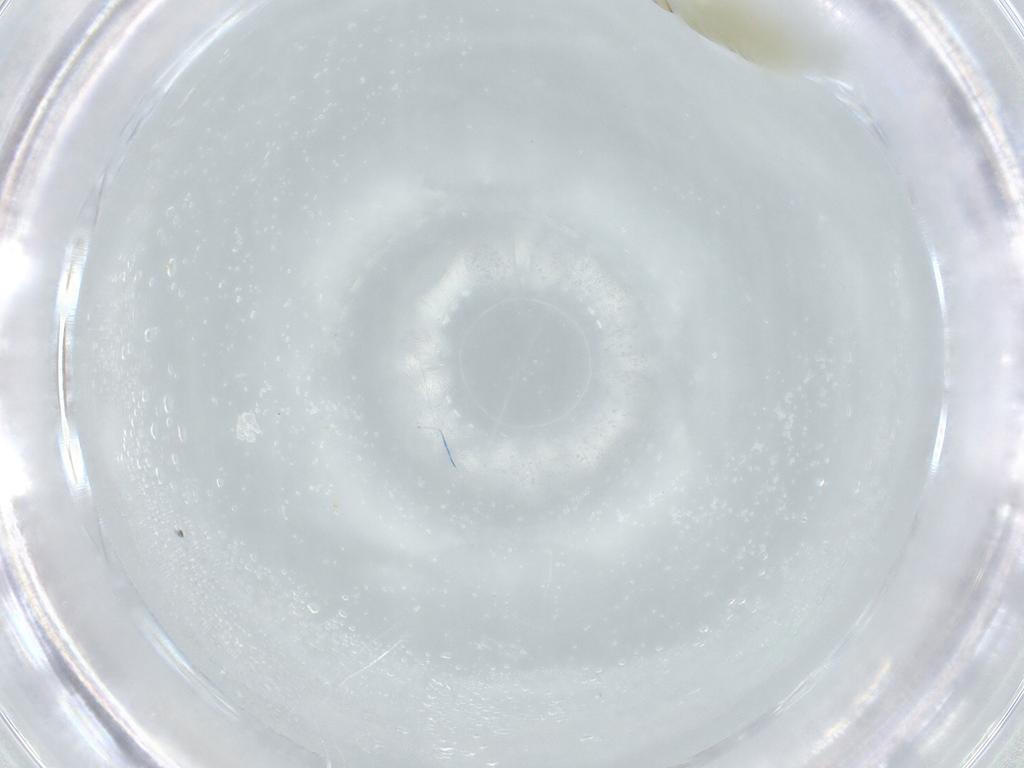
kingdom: Animalia
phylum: Arthropoda
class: Insecta
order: Diptera
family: Chironomidae
